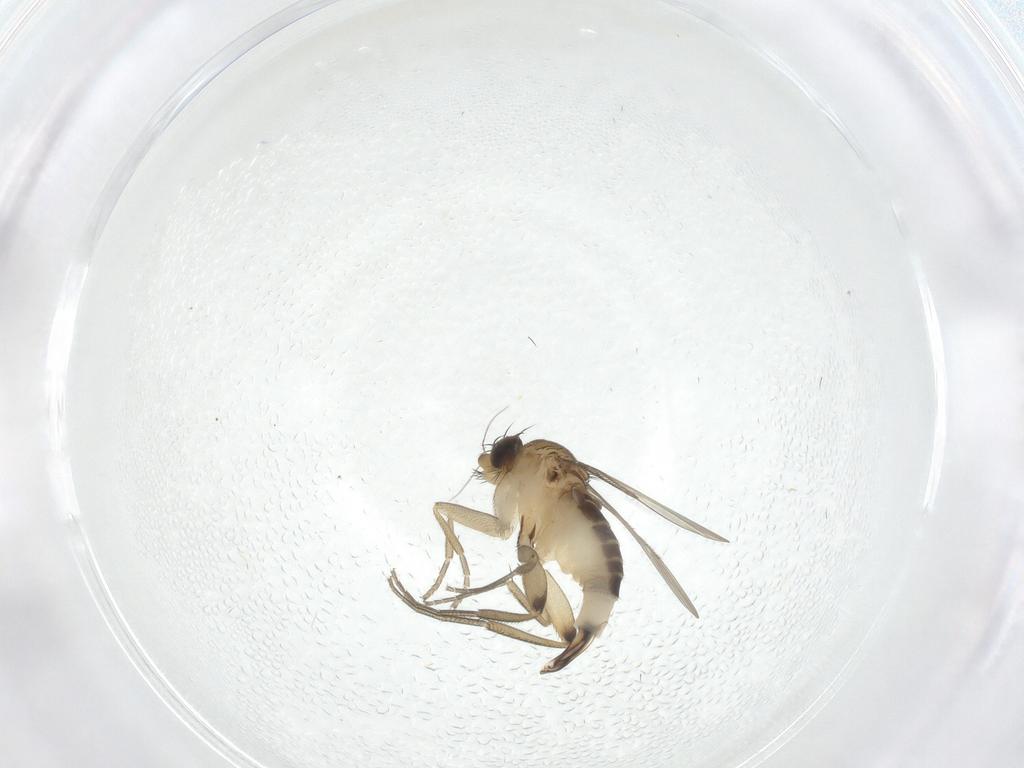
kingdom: Animalia
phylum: Arthropoda
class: Insecta
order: Diptera
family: Phoridae
